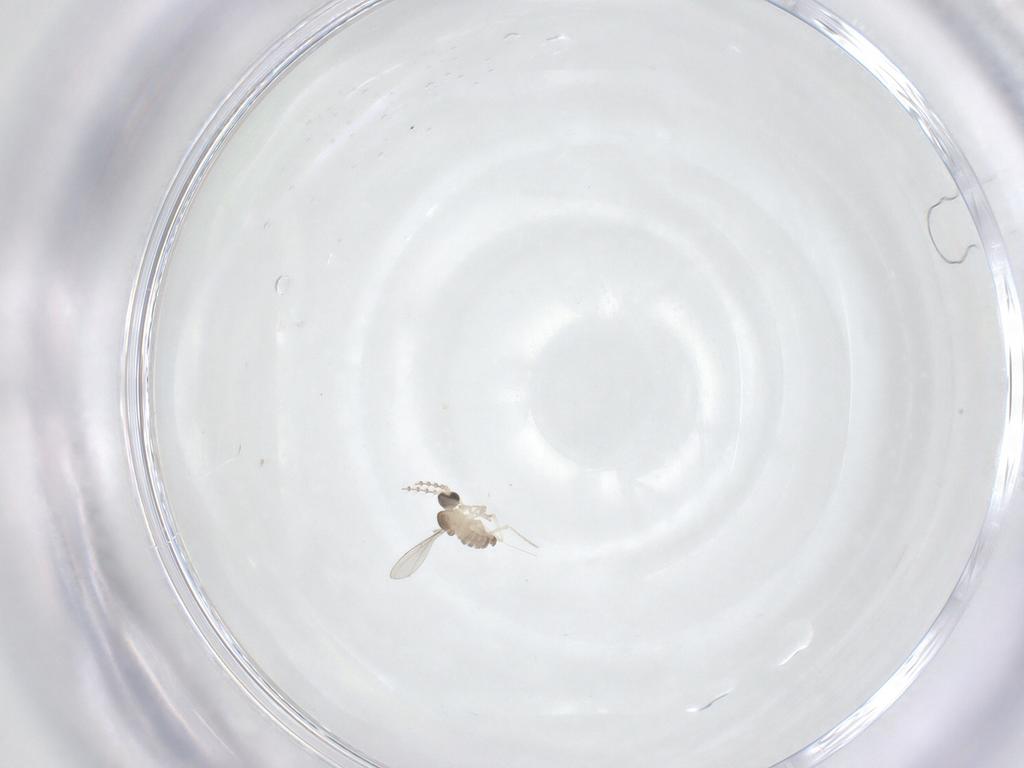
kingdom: Animalia
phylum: Arthropoda
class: Insecta
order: Diptera
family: Cecidomyiidae
